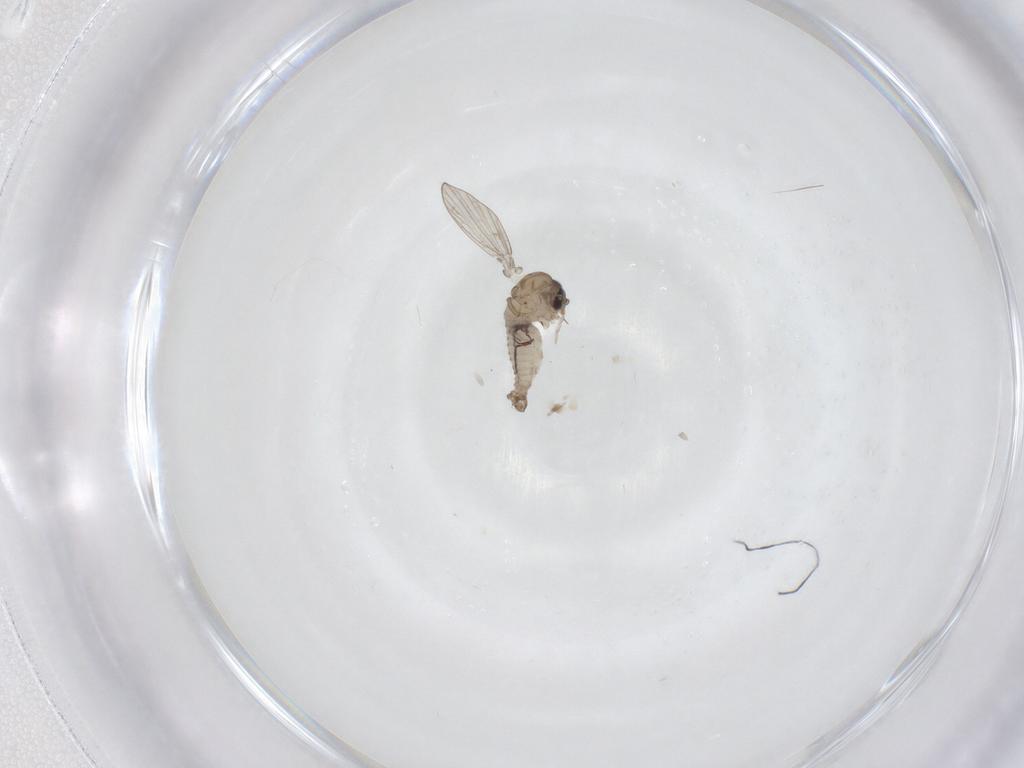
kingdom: Animalia
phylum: Arthropoda
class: Insecta
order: Diptera
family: Psychodidae
